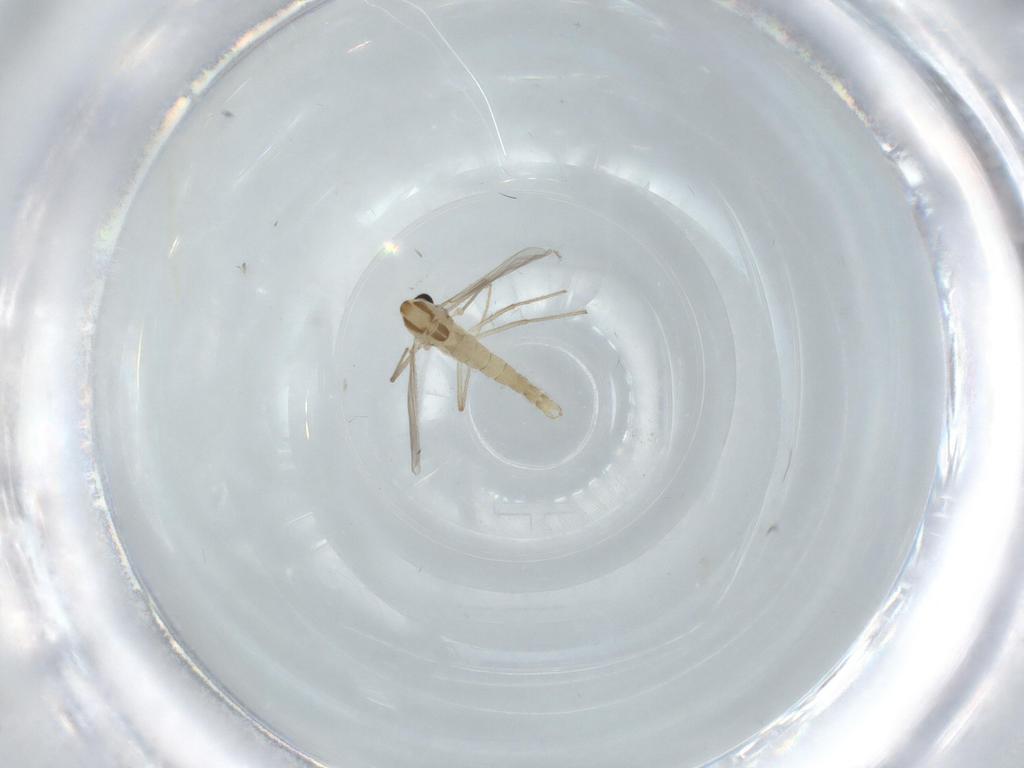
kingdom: Animalia
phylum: Arthropoda
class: Insecta
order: Diptera
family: Chironomidae
